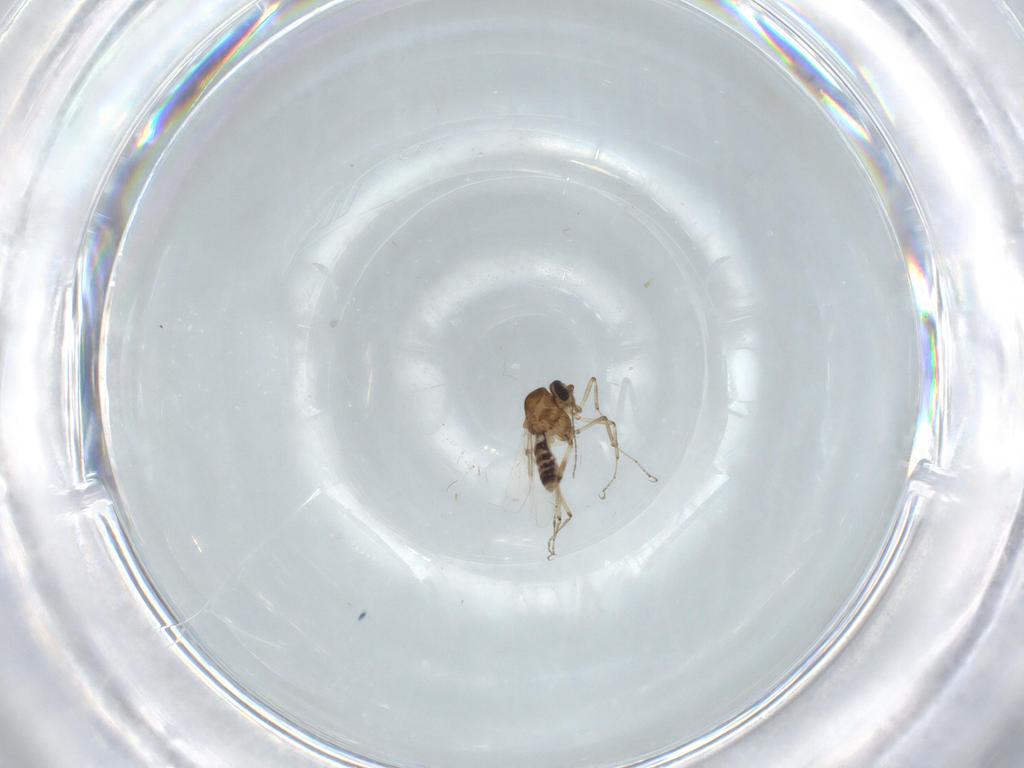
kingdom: Animalia
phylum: Arthropoda
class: Insecta
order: Diptera
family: Ceratopogonidae
